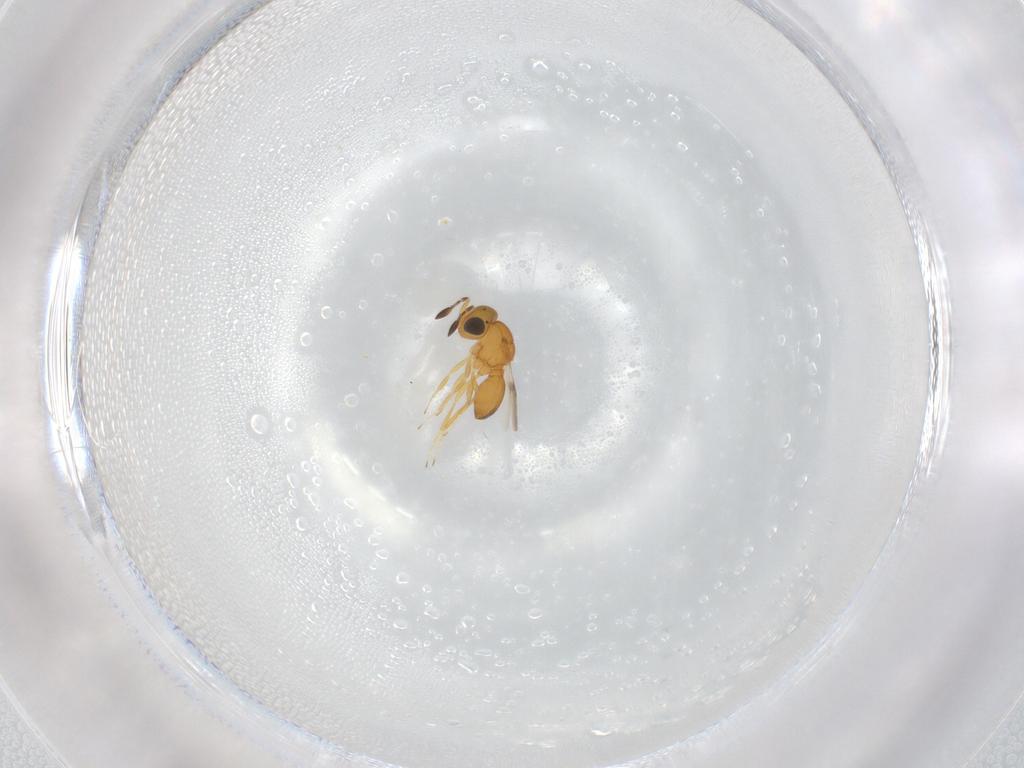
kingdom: Animalia
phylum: Arthropoda
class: Insecta
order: Hymenoptera
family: Scelionidae
